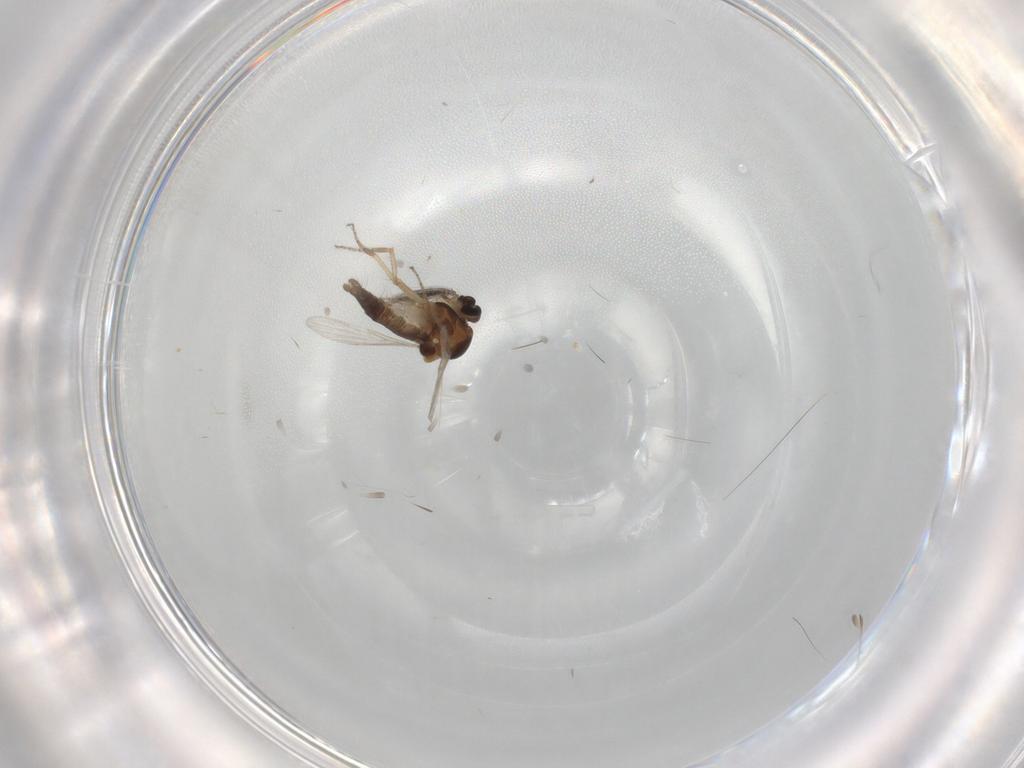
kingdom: Animalia
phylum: Arthropoda
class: Insecta
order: Diptera
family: Ceratopogonidae
